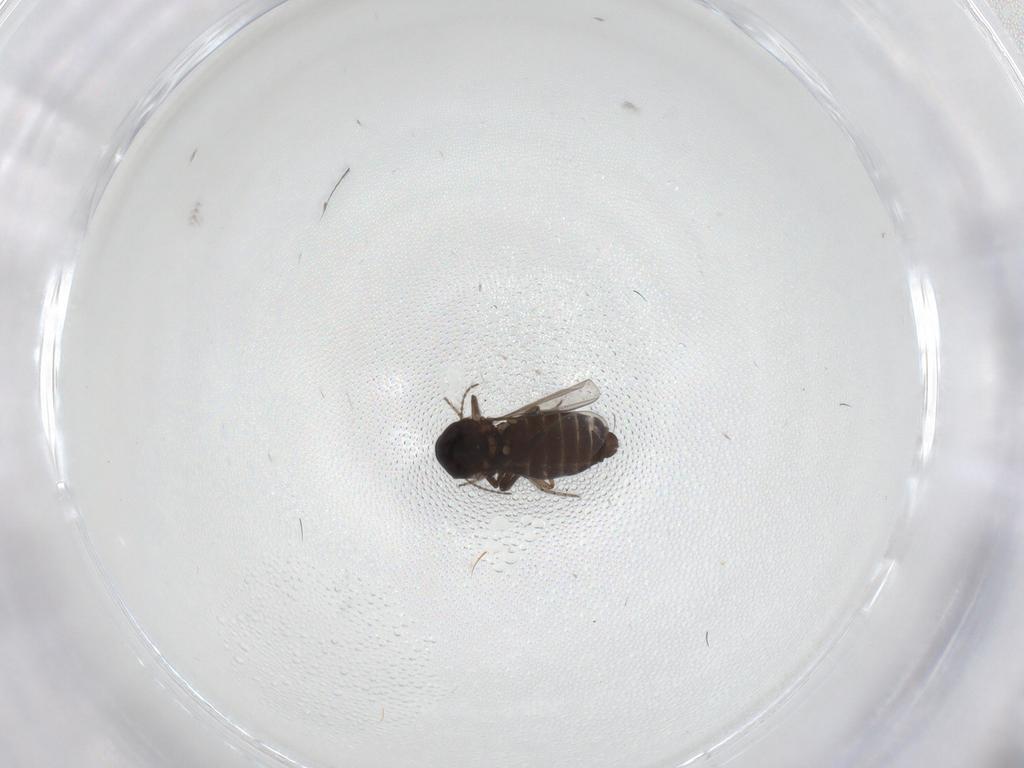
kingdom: Animalia
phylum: Arthropoda
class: Insecta
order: Diptera
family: Ceratopogonidae
